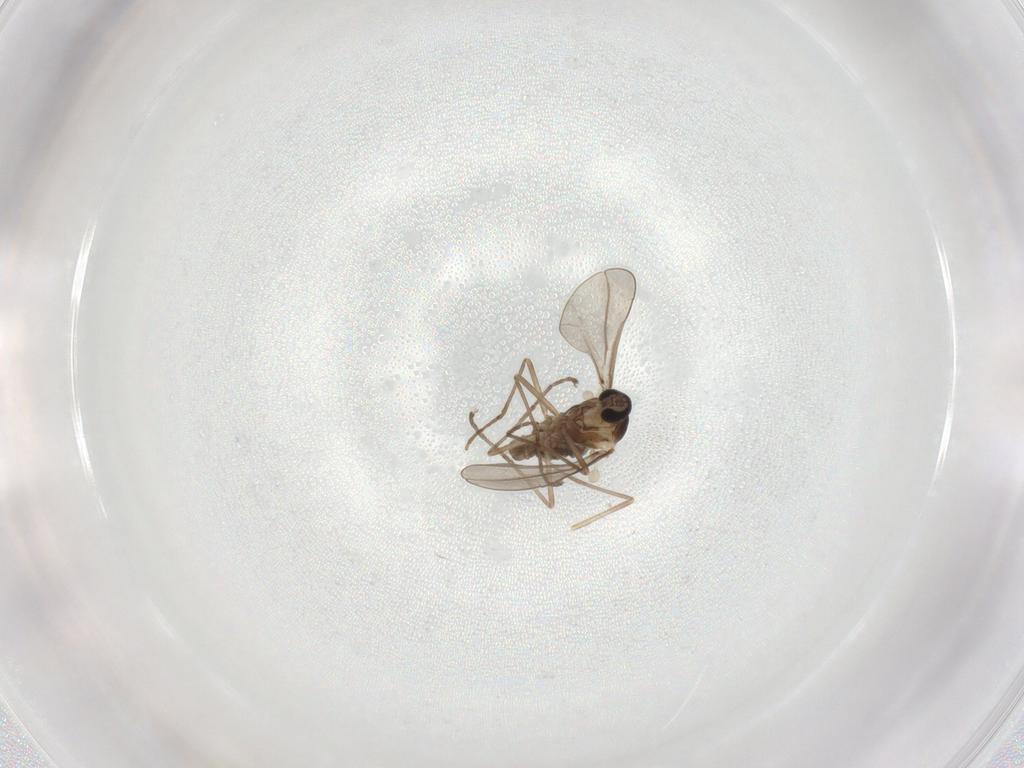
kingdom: Animalia
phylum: Arthropoda
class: Insecta
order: Diptera
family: Cecidomyiidae
